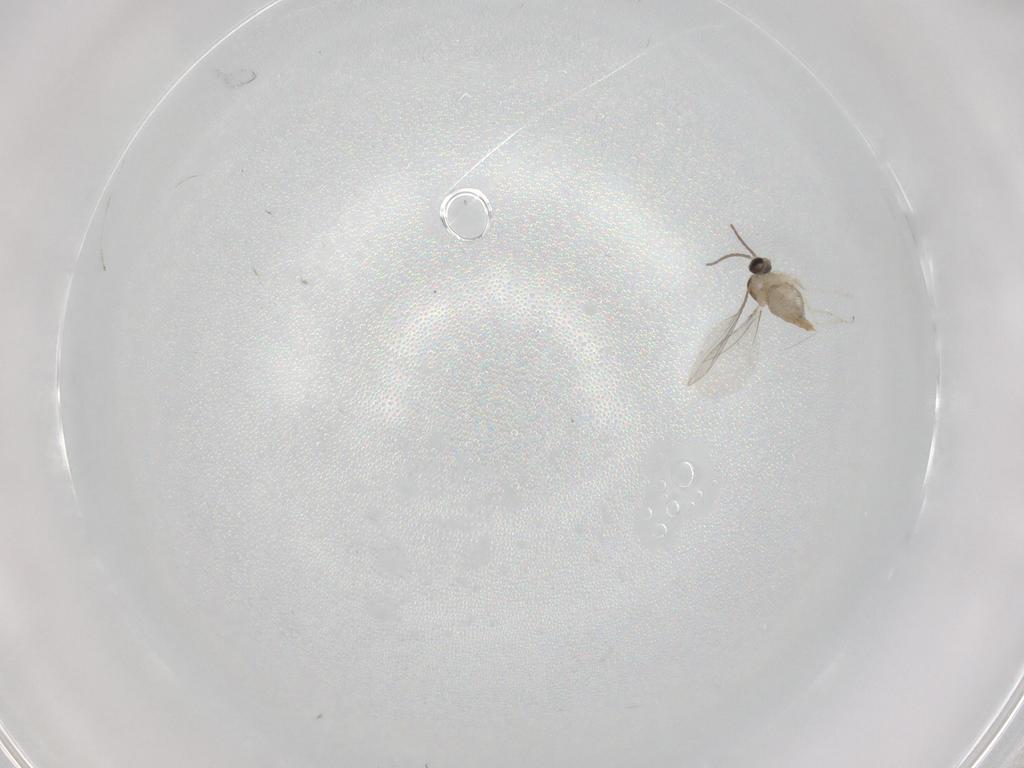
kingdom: Animalia
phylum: Arthropoda
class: Insecta
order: Diptera
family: Cecidomyiidae
